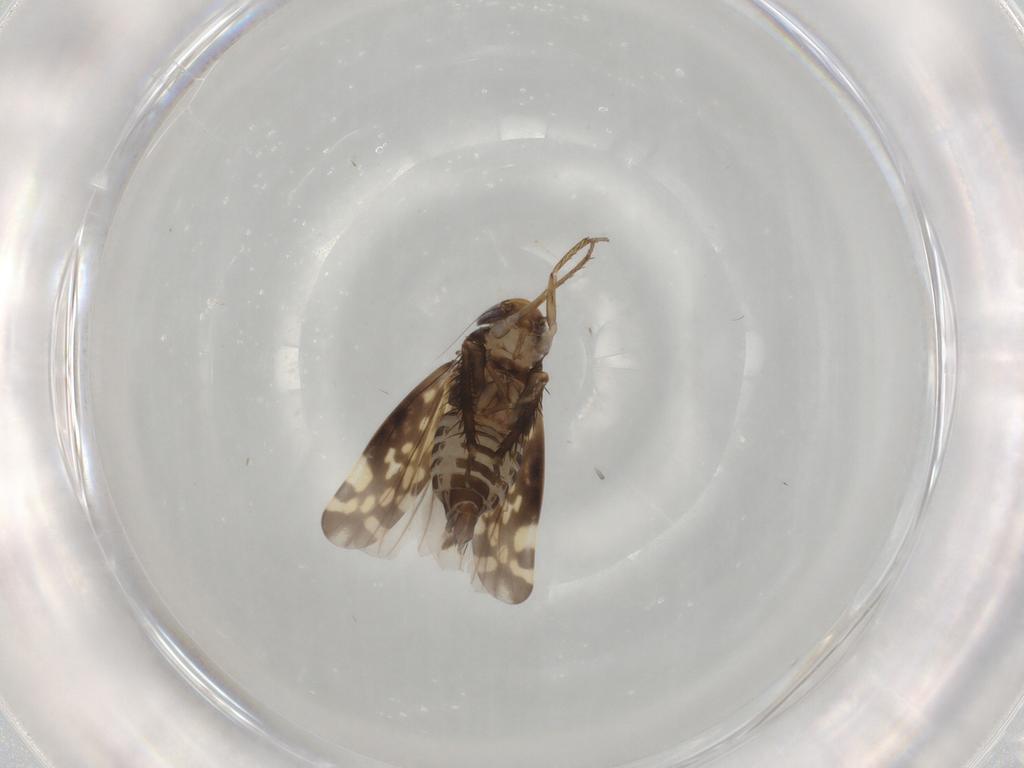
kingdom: Animalia
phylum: Arthropoda
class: Insecta
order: Hemiptera
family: Cicadellidae
